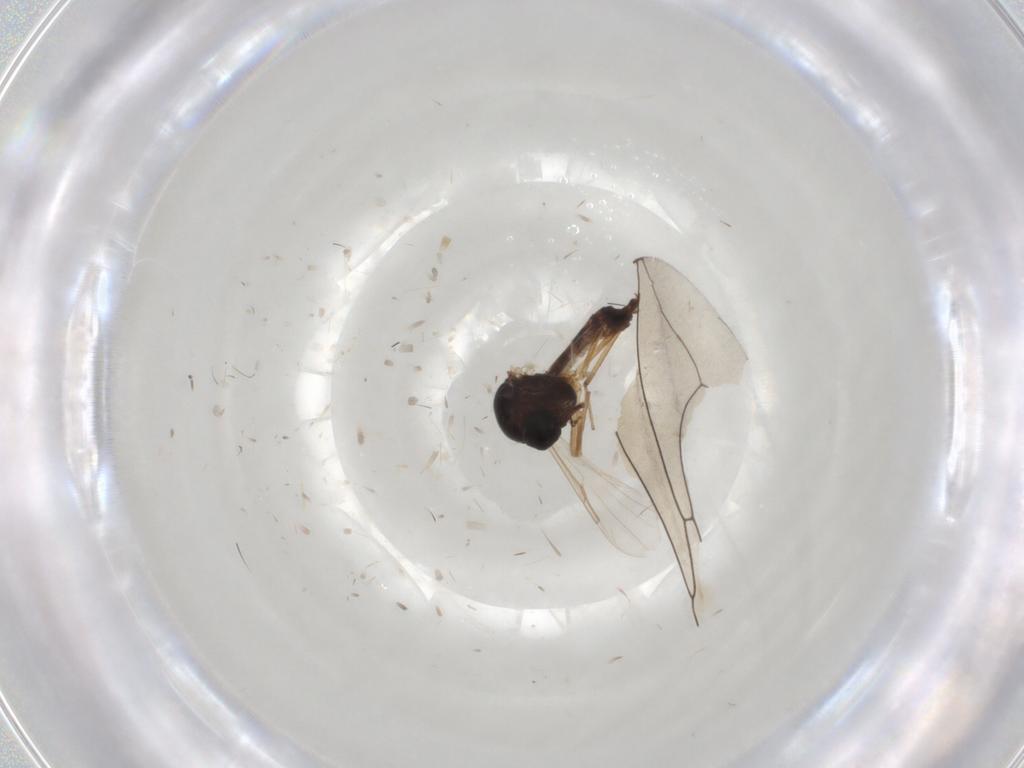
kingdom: Animalia
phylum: Arthropoda
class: Insecta
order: Diptera
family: Ceratopogonidae
